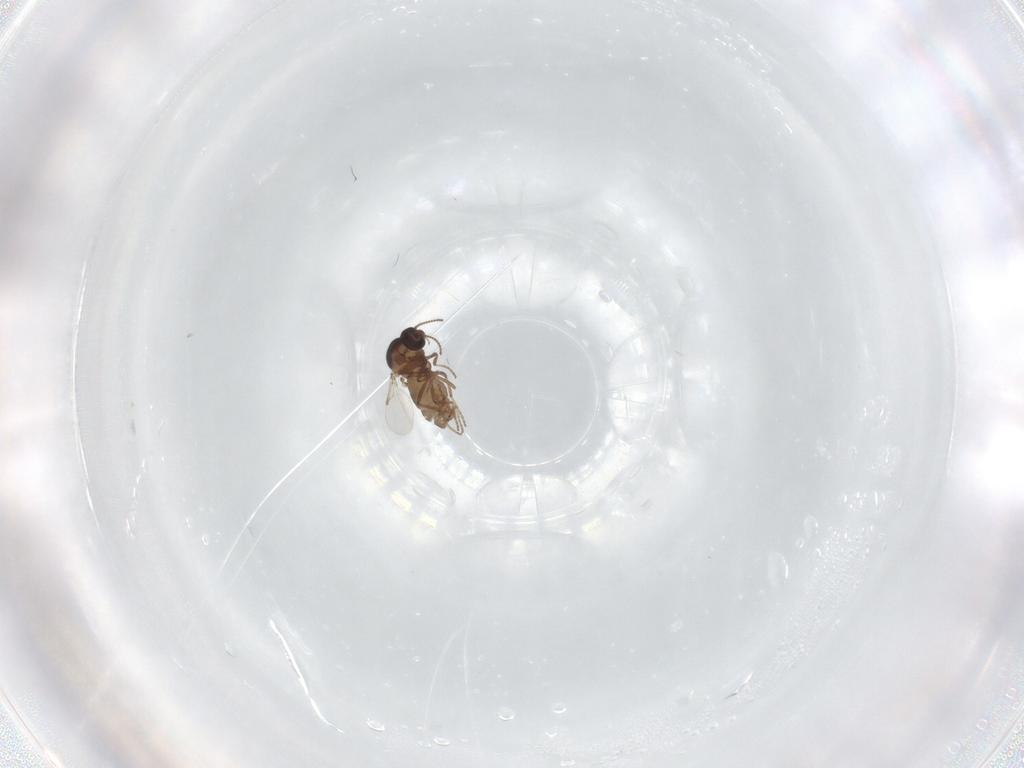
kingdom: Animalia
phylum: Arthropoda
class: Insecta
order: Diptera
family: Ceratopogonidae
